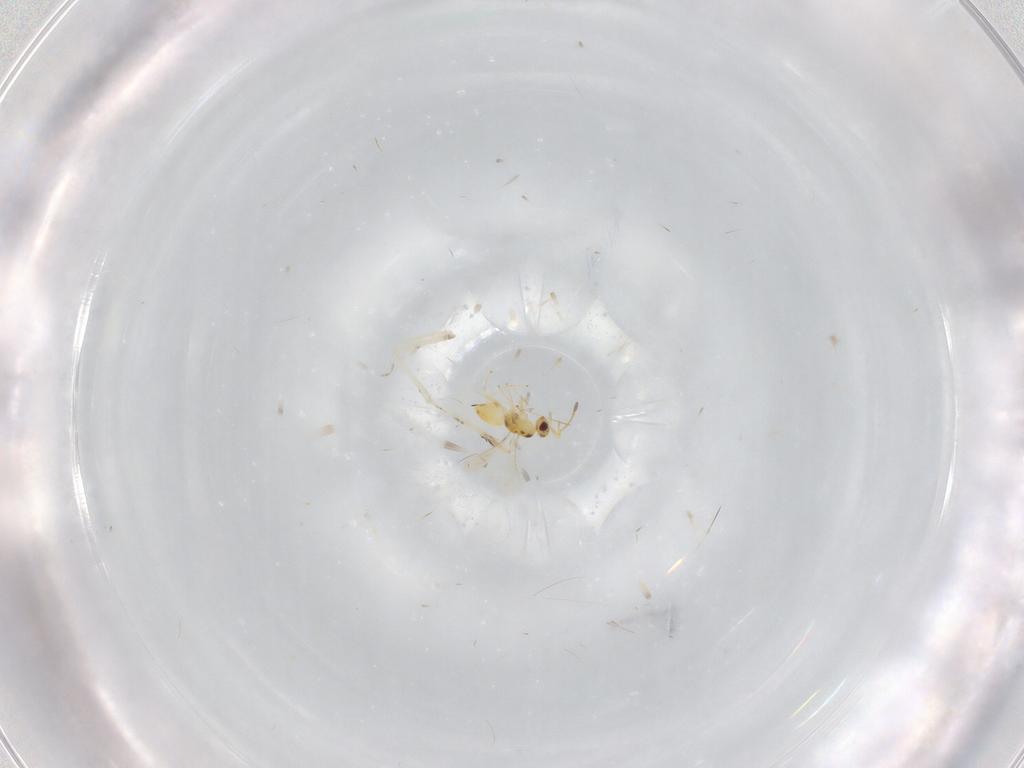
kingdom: Animalia
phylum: Arthropoda
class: Insecta
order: Hymenoptera
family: Mymaridae
